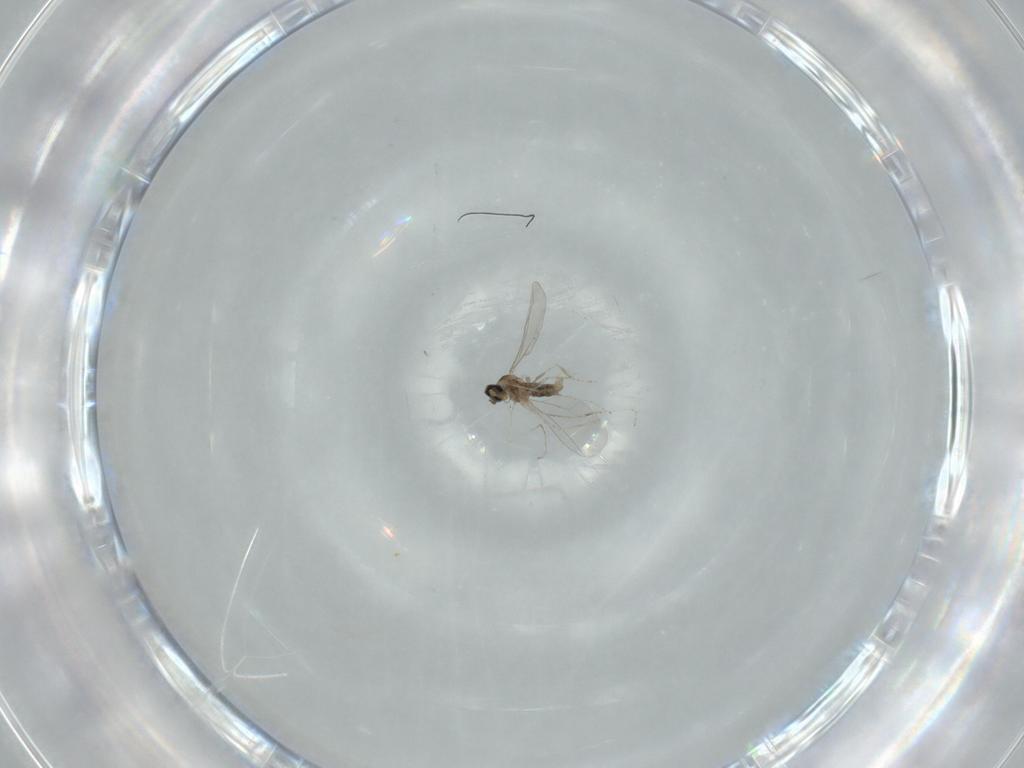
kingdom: Animalia
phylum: Arthropoda
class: Insecta
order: Diptera
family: Cecidomyiidae
